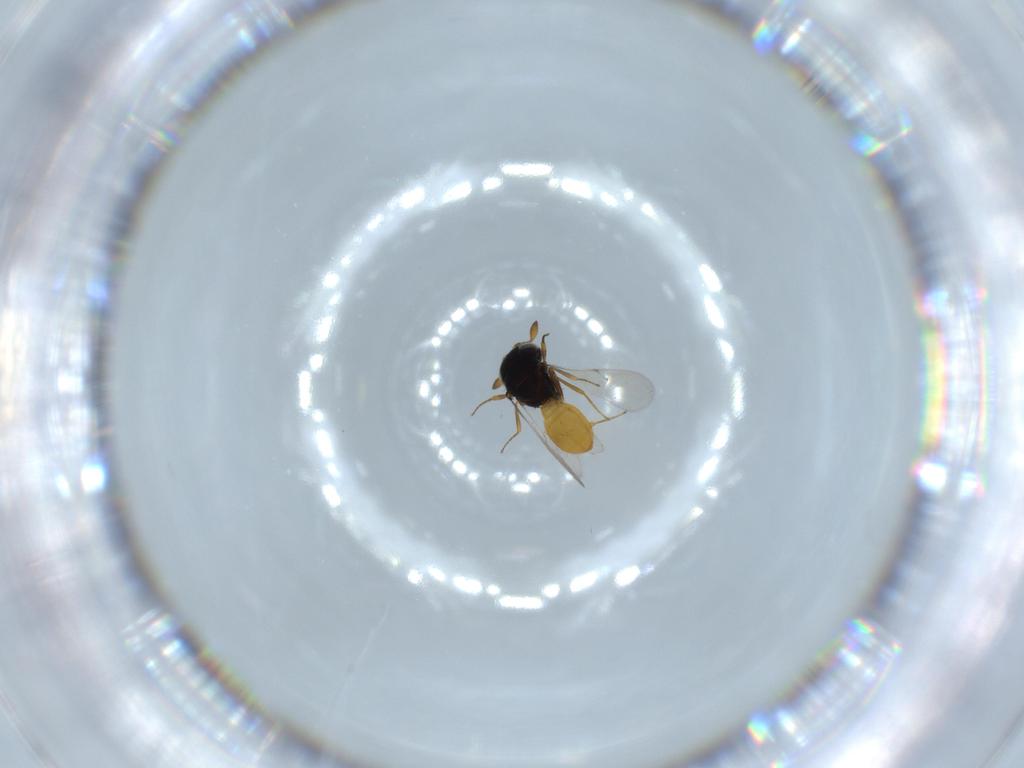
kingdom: Animalia
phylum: Arthropoda
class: Insecta
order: Hymenoptera
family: Scelionidae
